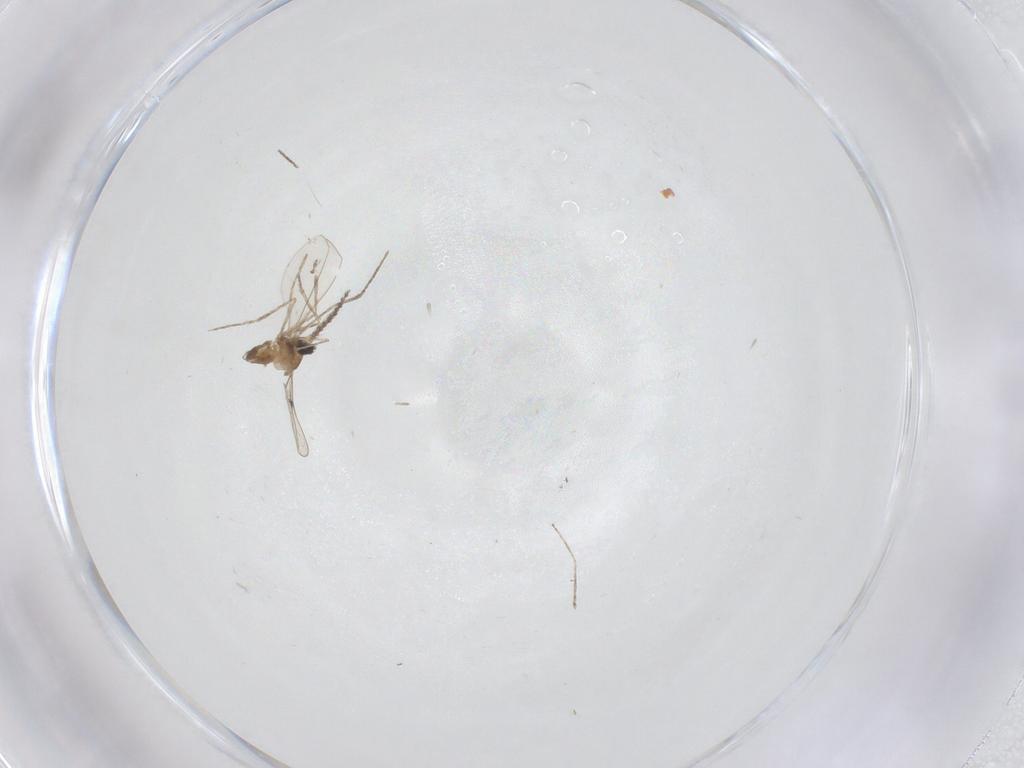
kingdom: Animalia
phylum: Arthropoda
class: Insecta
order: Diptera
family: Cecidomyiidae
